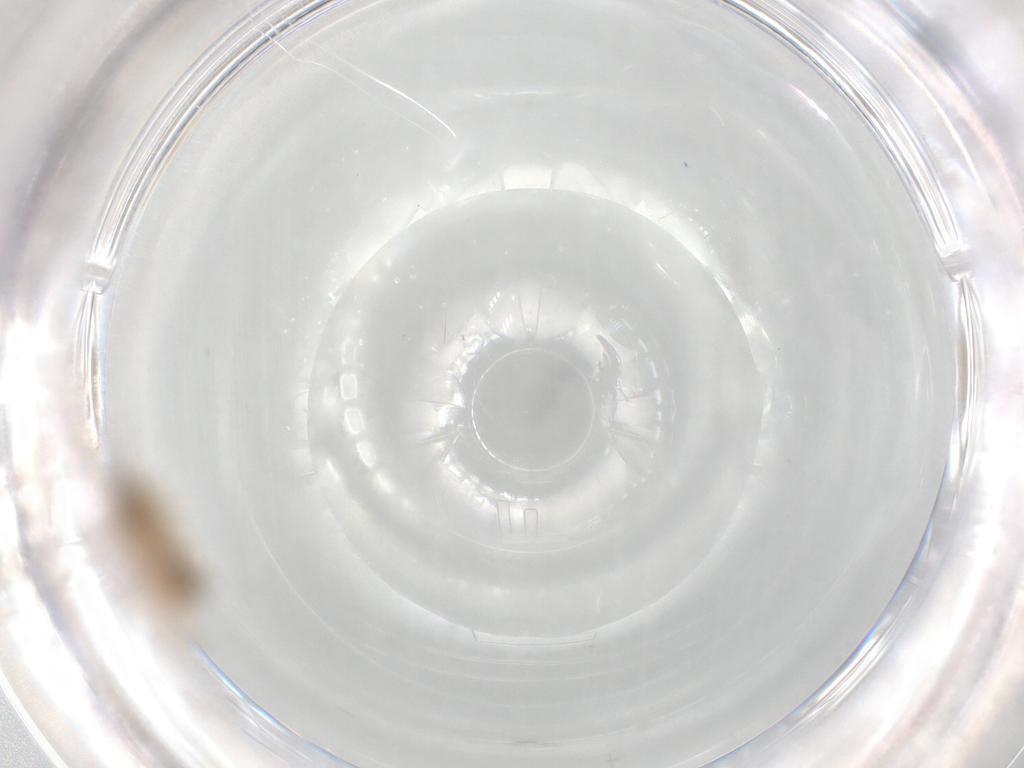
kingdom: Animalia
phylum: Arthropoda
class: Insecta
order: Hymenoptera
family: Mymaridae
